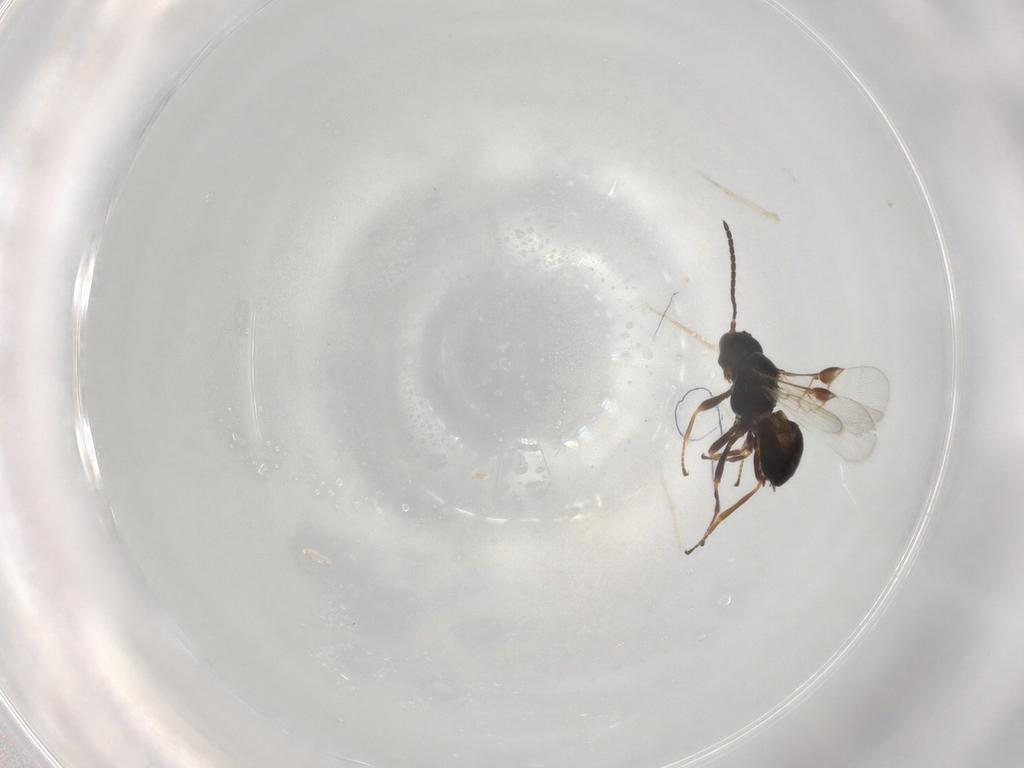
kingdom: Animalia
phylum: Arthropoda
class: Insecta
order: Hymenoptera
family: Braconidae
